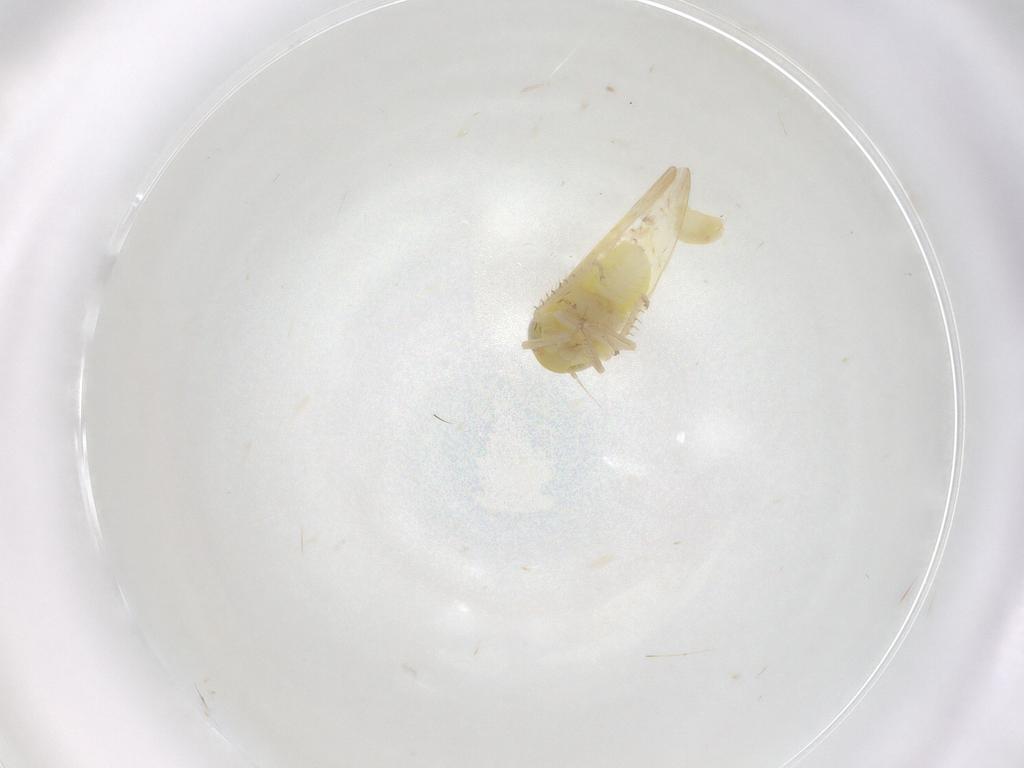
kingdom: Animalia
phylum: Arthropoda
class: Insecta
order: Hemiptera
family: Cicadellidae
